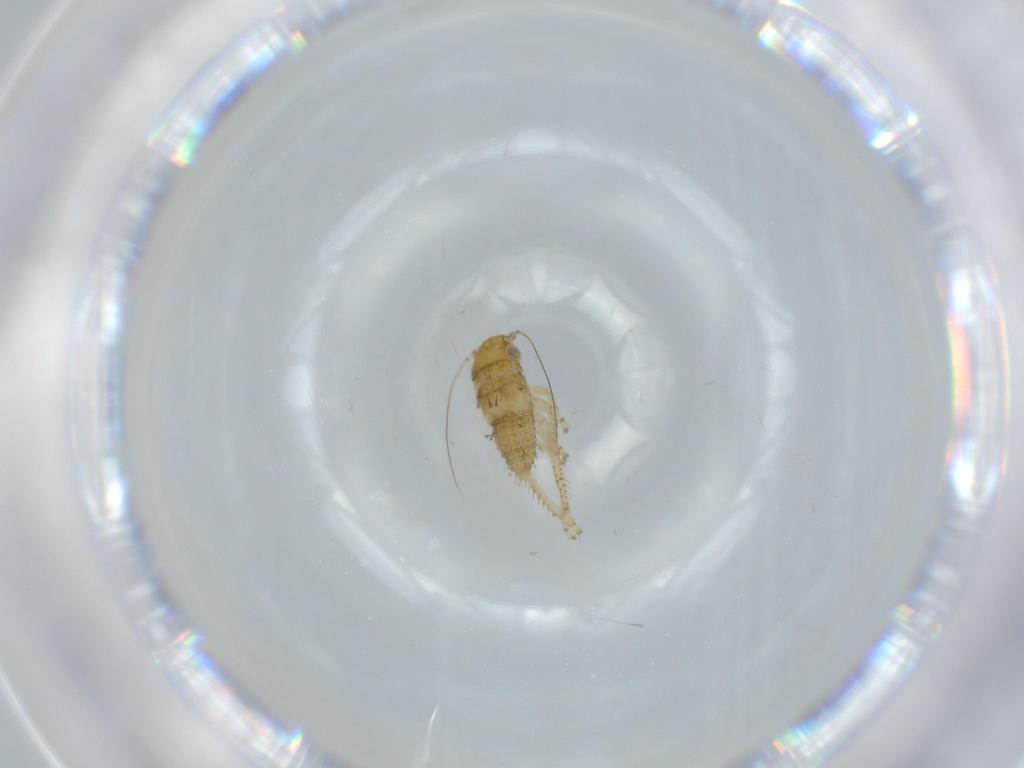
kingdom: Animalia
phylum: Arthropoda
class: Insecta
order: Hemiptera
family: Cicadellidae
